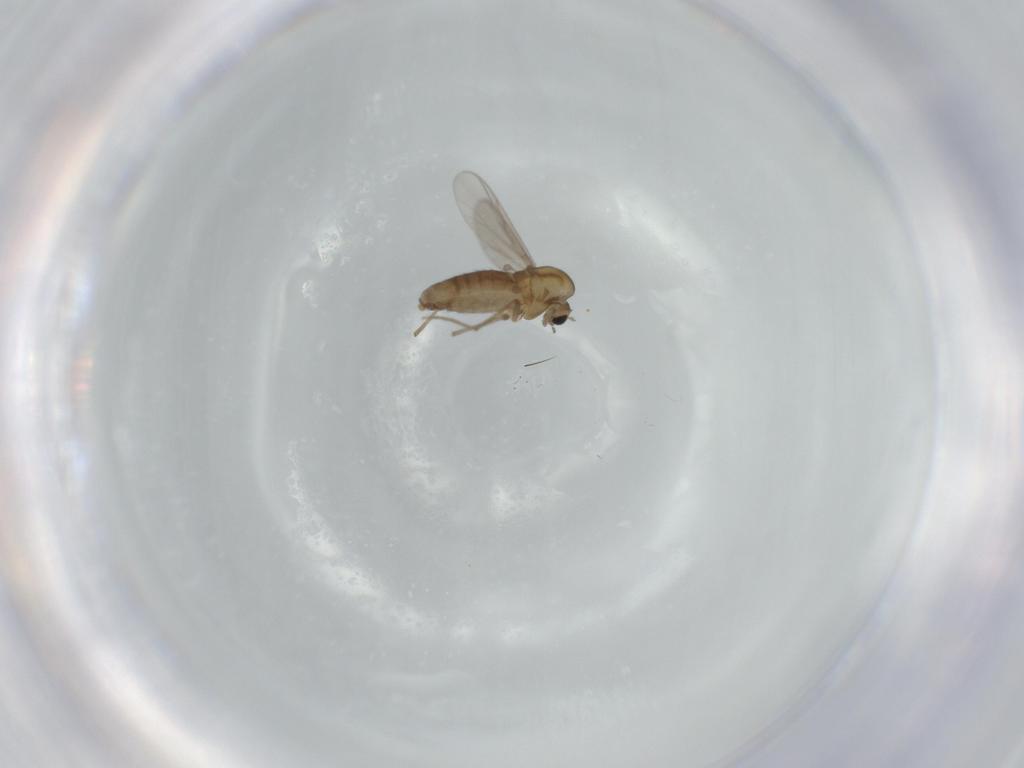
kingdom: Animalia
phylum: Arthropoda
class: Insecta
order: Diptera
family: Chironomidae
